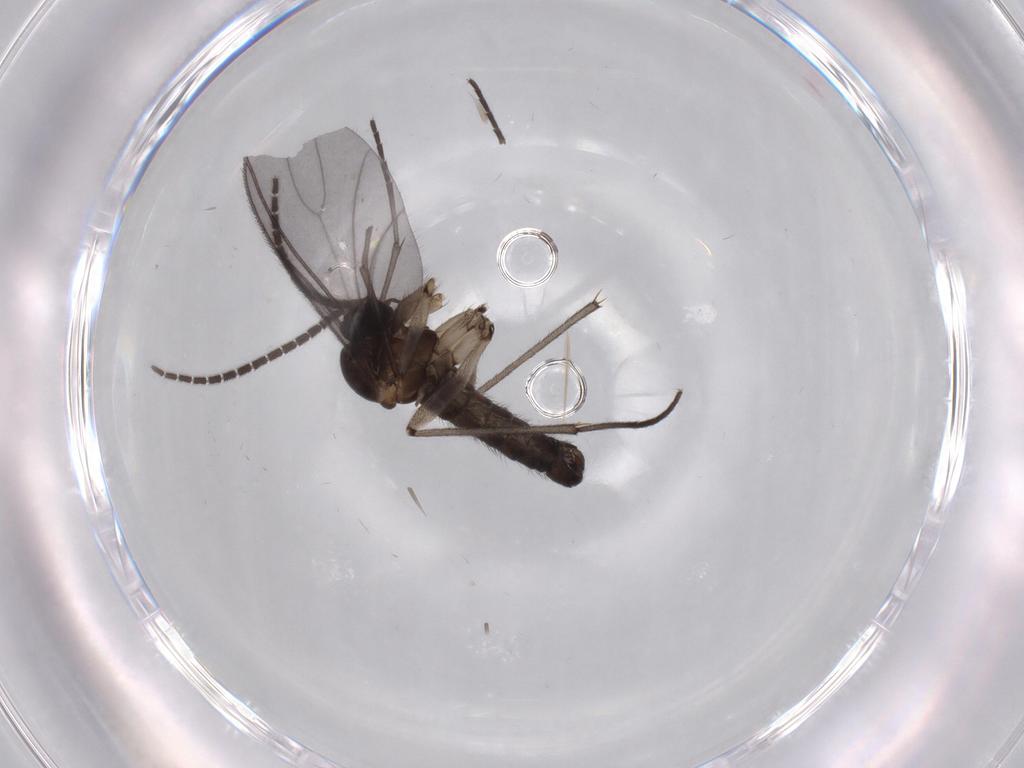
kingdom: Animalia
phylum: Arthropoda
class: Insecta
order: Diptera
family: Sciaridae
